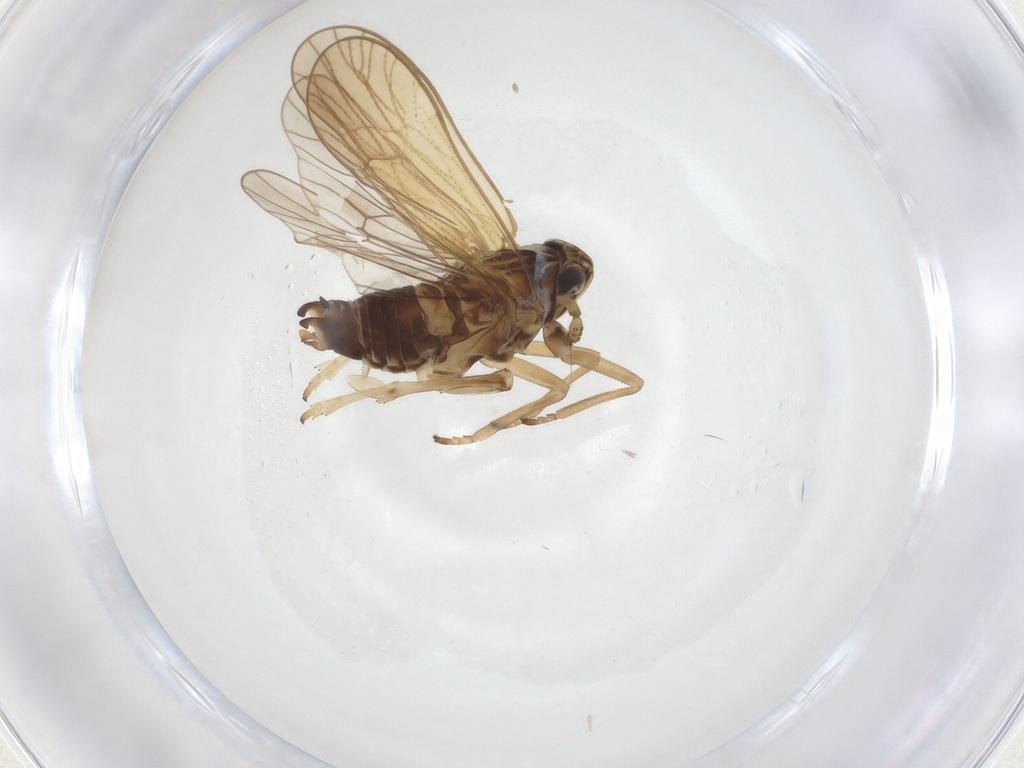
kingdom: Animalia
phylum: Arthropoda
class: Insecta
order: Hemiptera
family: Delphacidae
